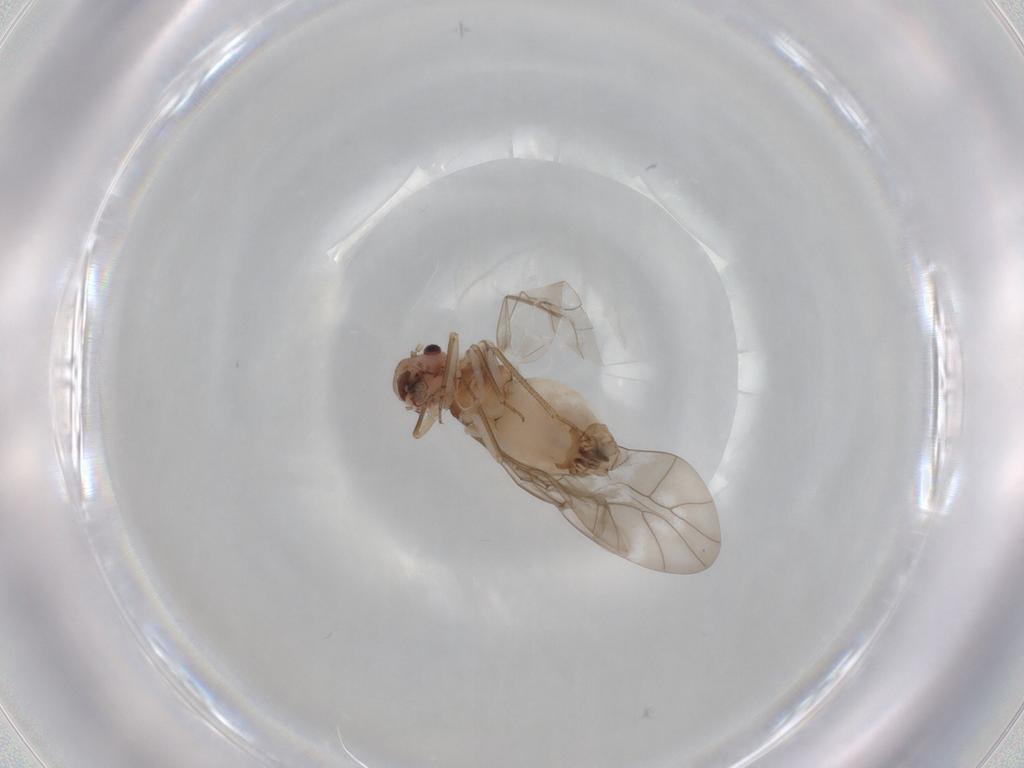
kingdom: Animalia
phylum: Arthropoda
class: Insecta
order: Psocodea
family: Peripsocidae
